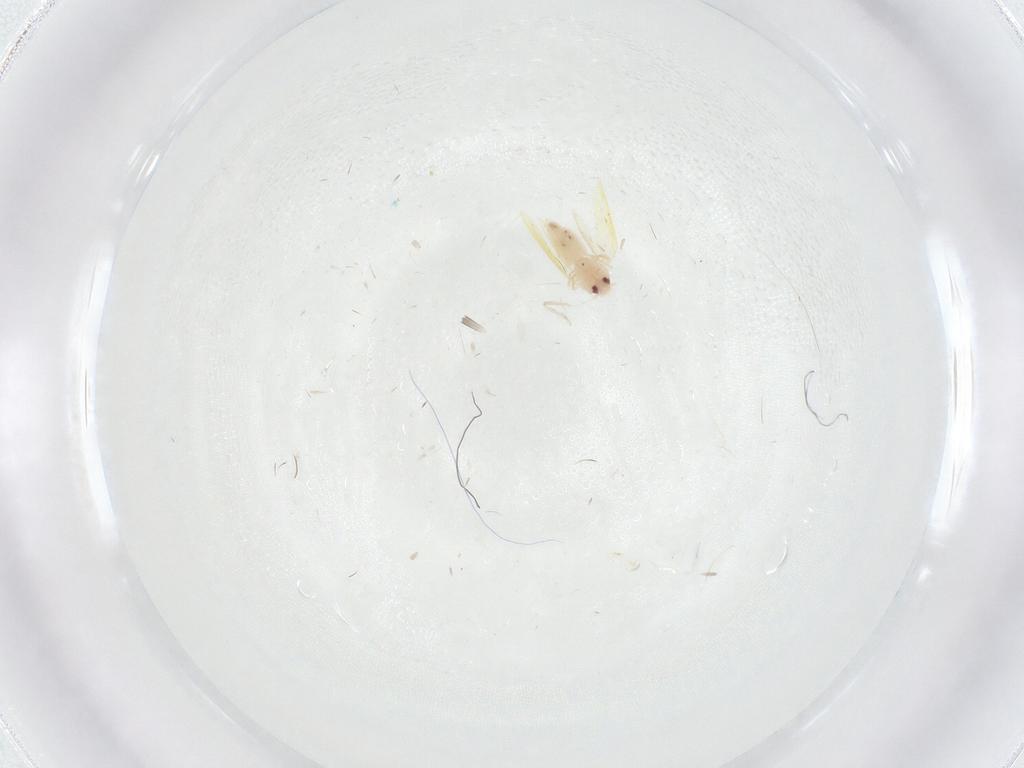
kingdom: Animalia
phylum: Arthropoda
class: Insecta
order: Hemiptera
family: Aleyrodidae
